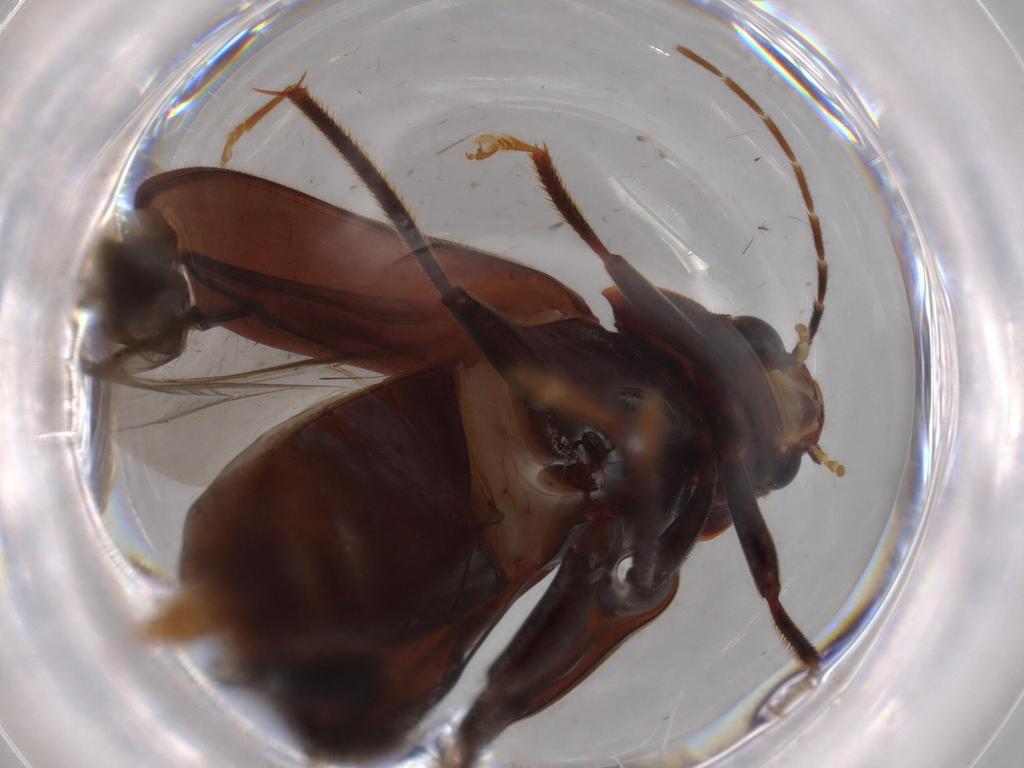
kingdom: Animalia
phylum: Arthropoda
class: Insecta
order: Coleoptera
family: Ptilodactylidae
